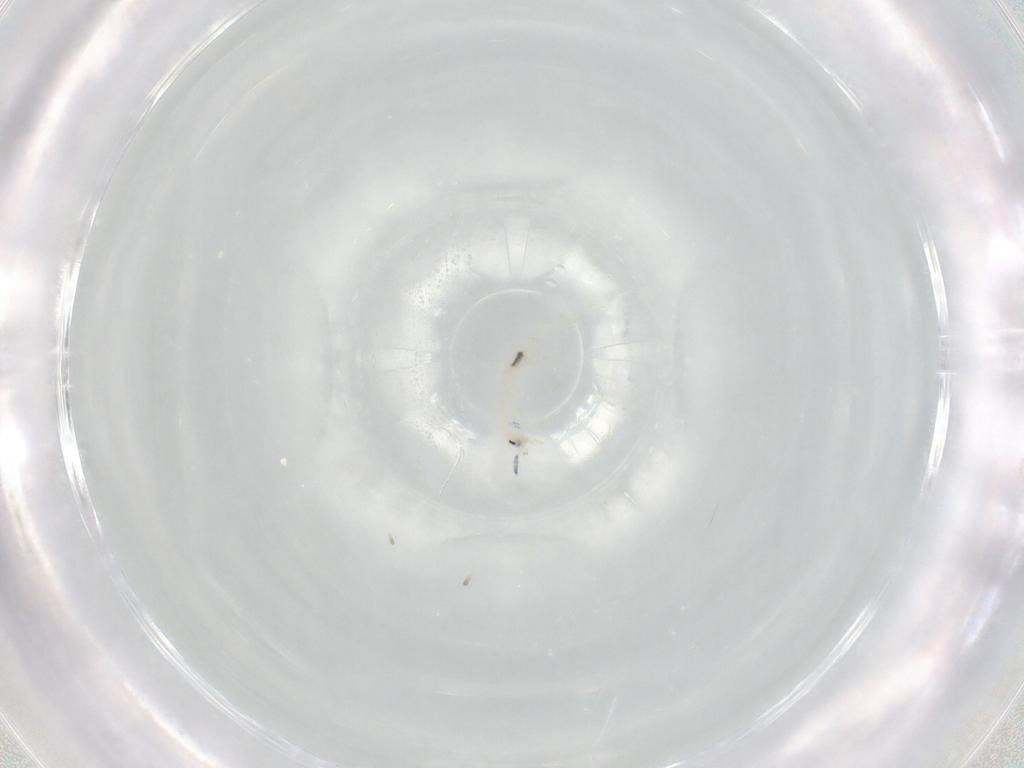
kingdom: Animalia
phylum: Arthropoda
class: Collembola
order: Entomobryomorpha
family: Entomobryidae
